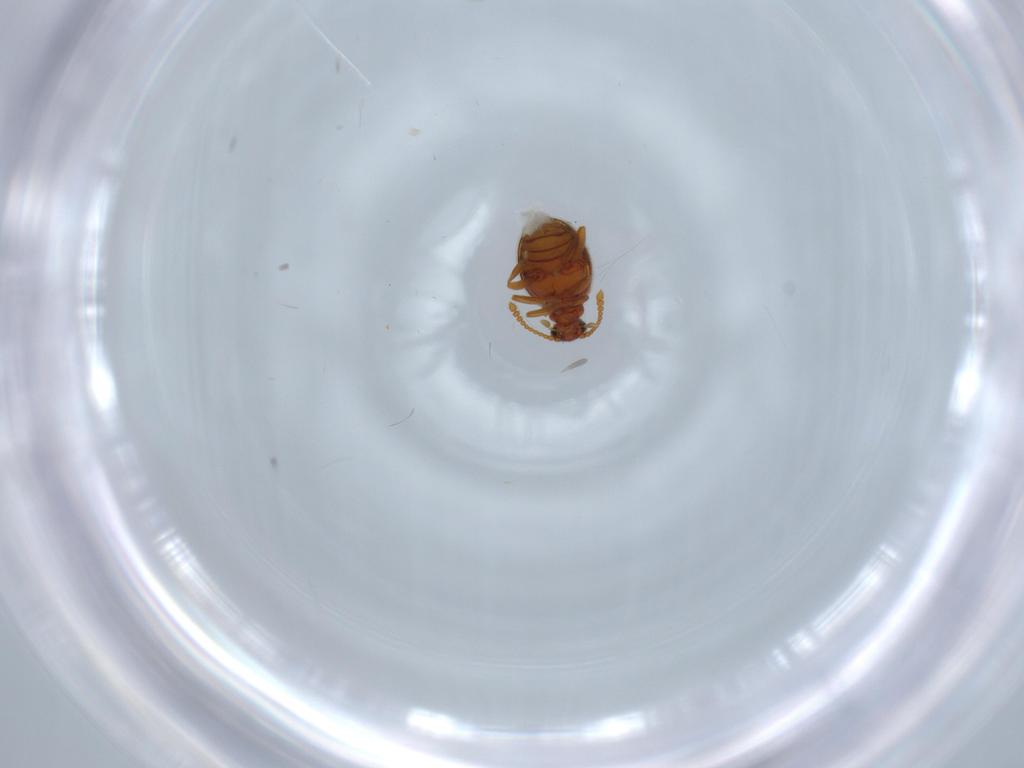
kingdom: Animalia
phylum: Arthropoda
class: Insecta
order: Coleoptera
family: Aderidae
